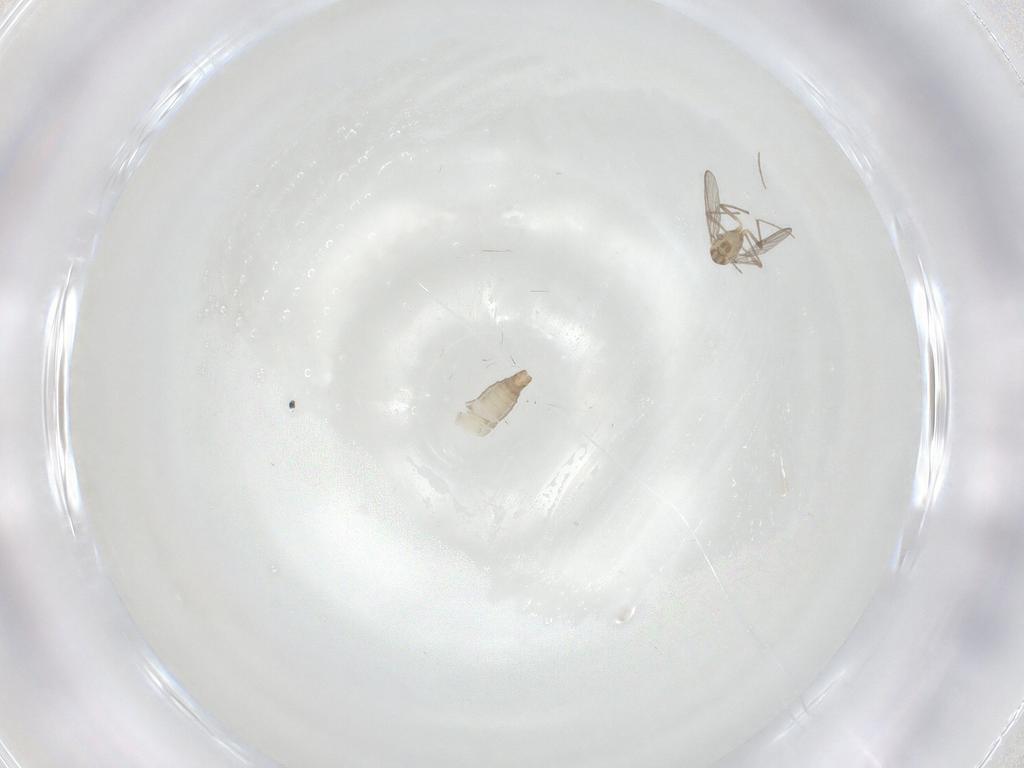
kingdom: Animalia
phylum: Arthropoda
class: Insecta
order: Diptera
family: Chironomidae
